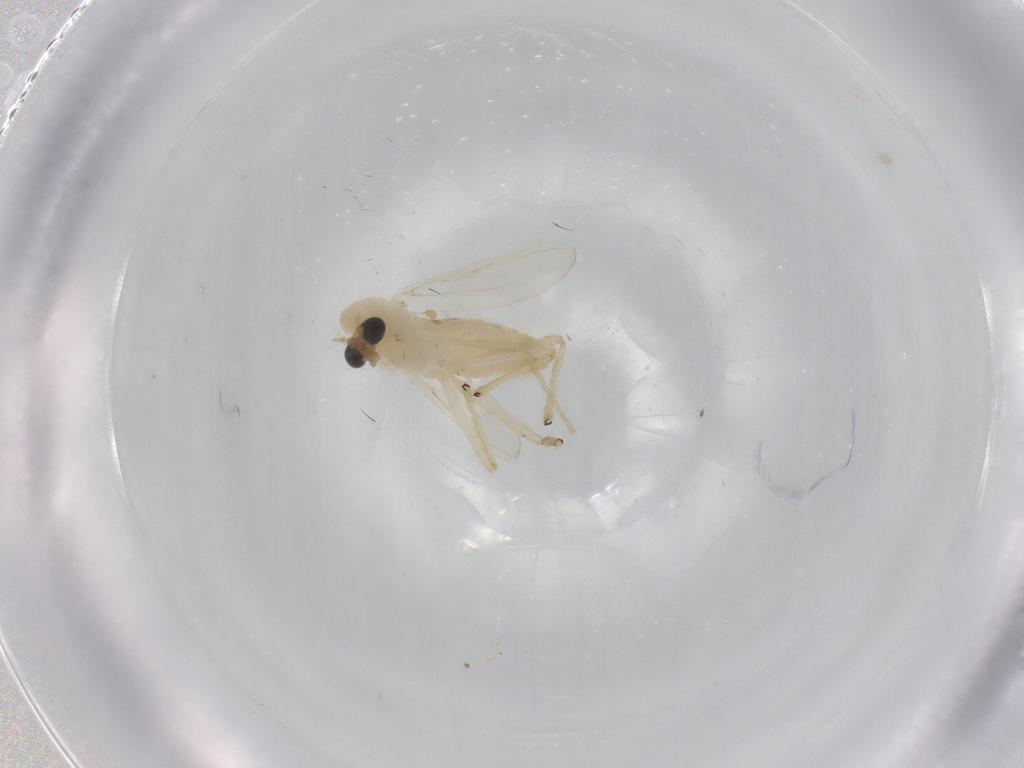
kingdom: Animalia
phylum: Arthropoda
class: Insecta
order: Diptera
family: Chironomidae
